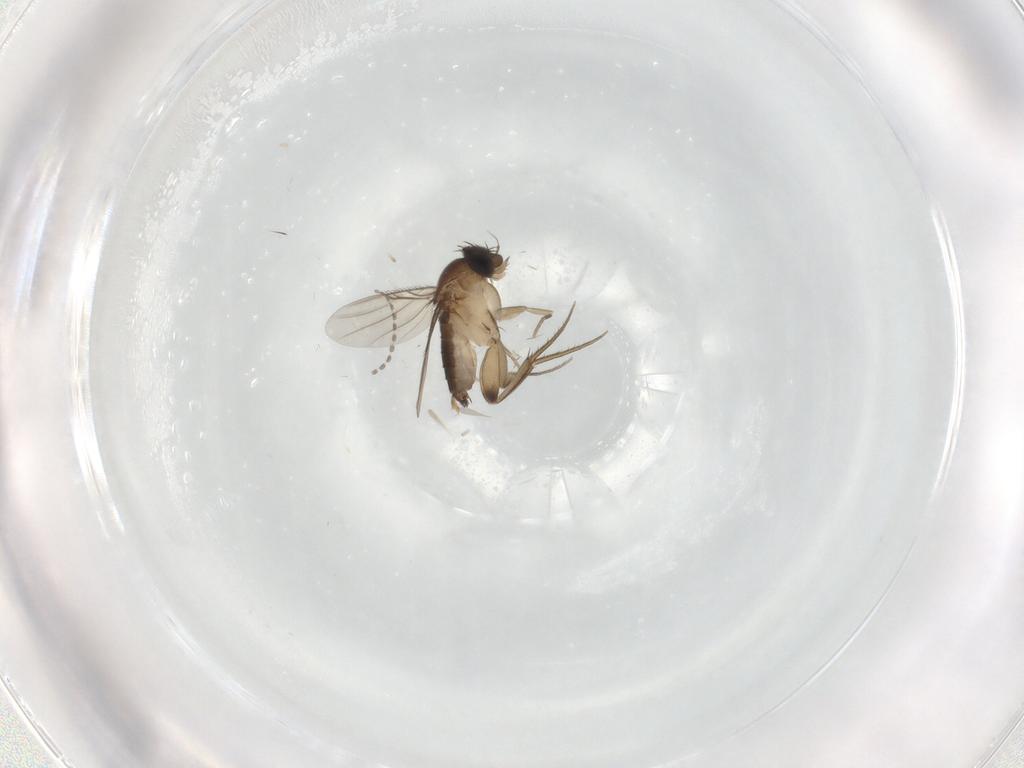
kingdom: Animalia
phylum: Arthropoda
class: Insecta
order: Diptera
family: Phoridae
